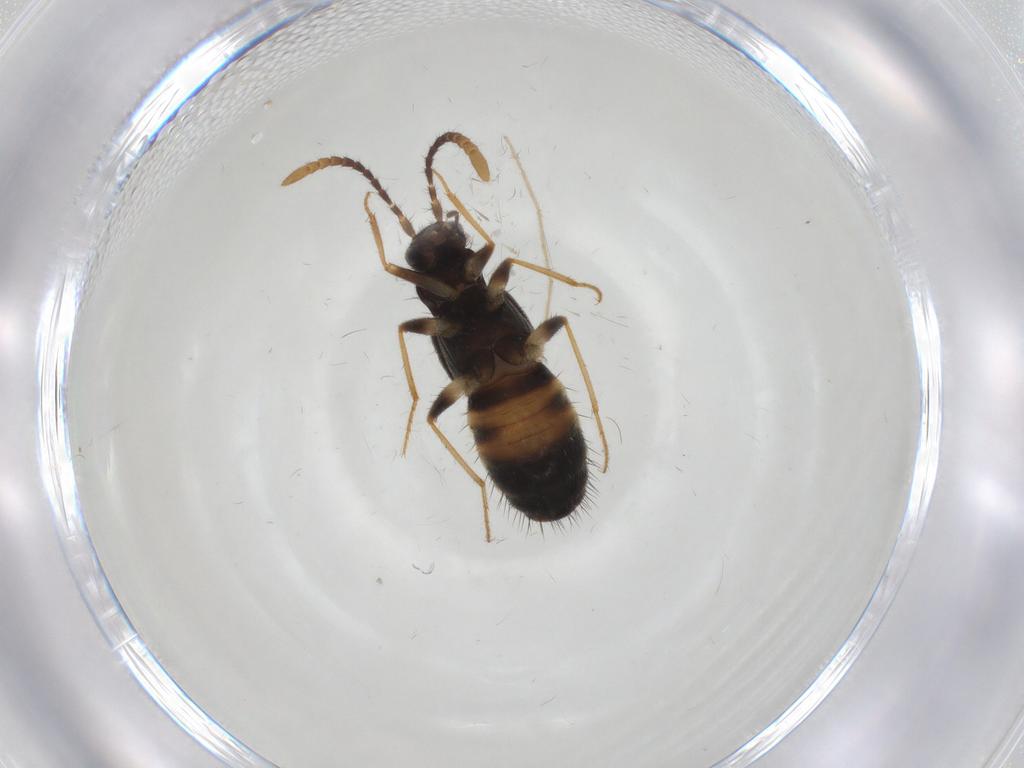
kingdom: Animalia
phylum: Arthropoda
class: Insecta
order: Coleoptera
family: Staphylinidae
